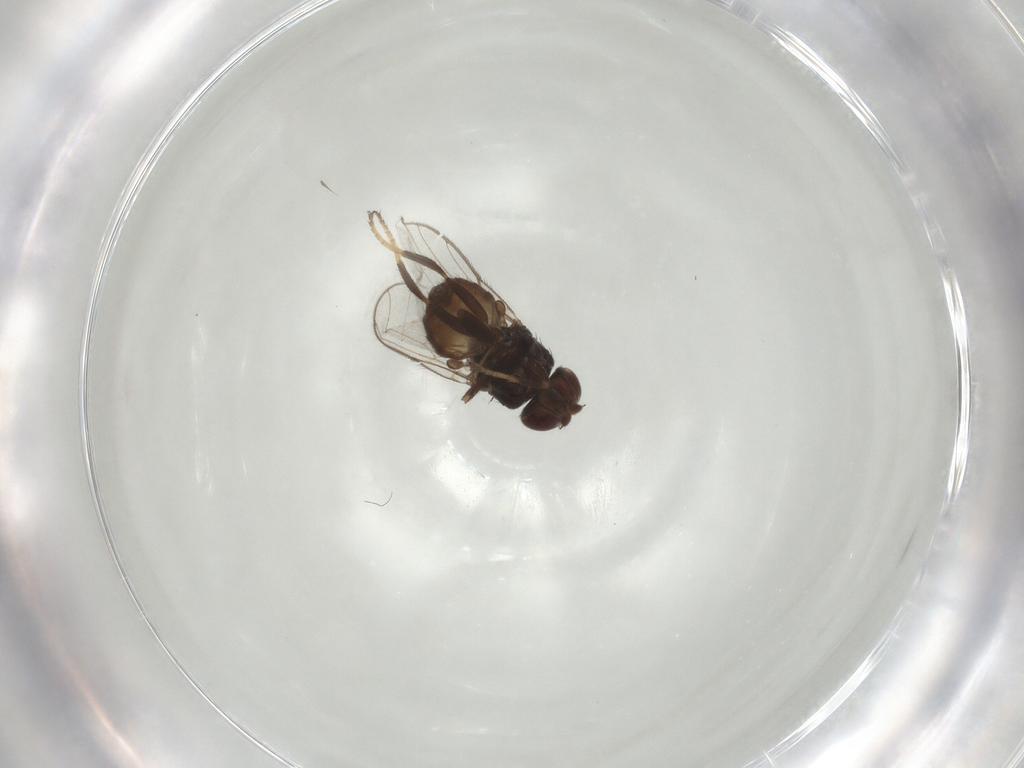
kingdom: Animalia
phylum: Arthropoda
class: Insecta
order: Diptera
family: Chloropidae
